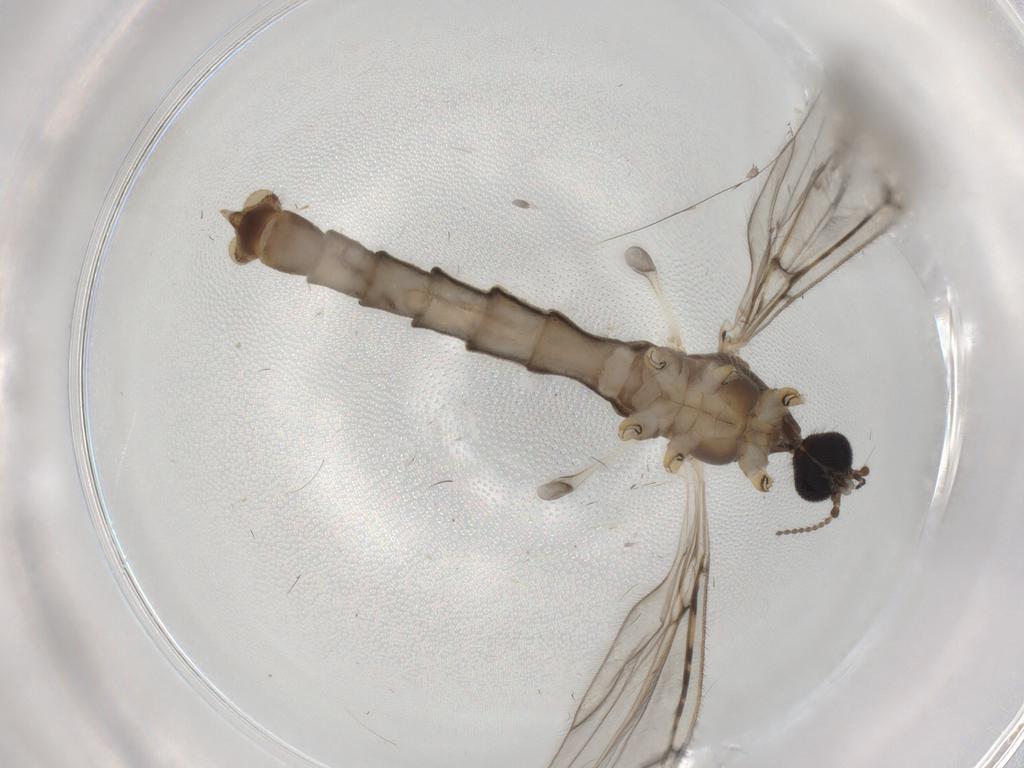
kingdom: Animalia
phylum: Arthropoda
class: Insecta
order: Diptera
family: Limoniidae
